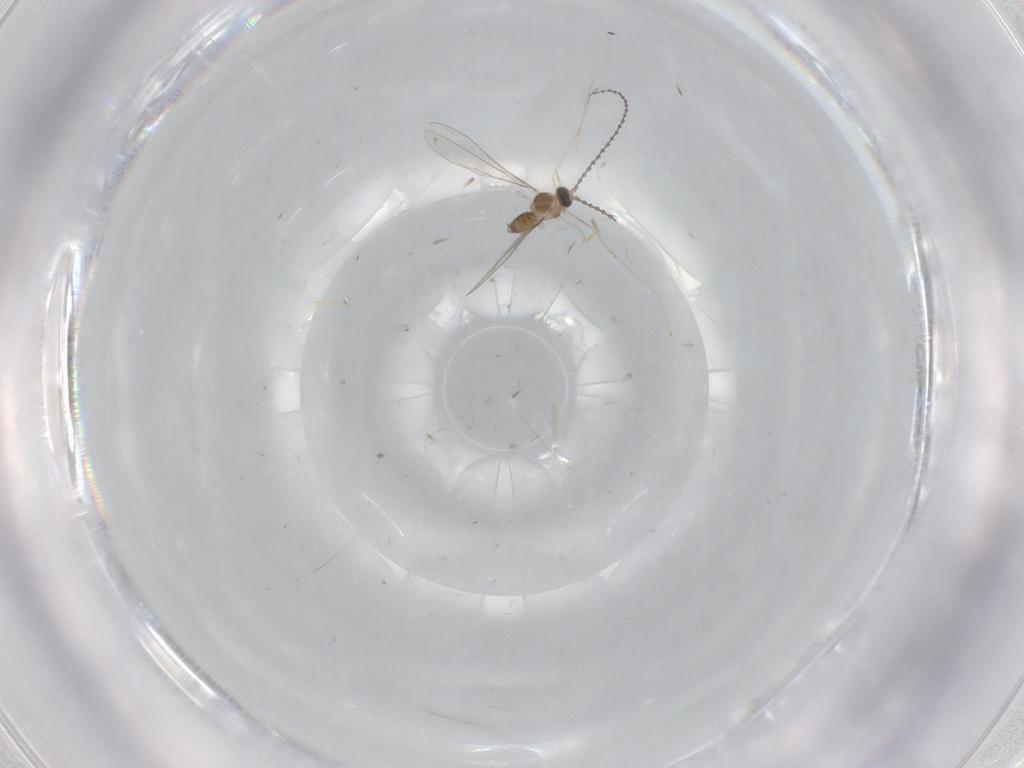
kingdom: Animalia
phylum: Arthropoda
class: Insecta
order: Diptera
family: Cecidomyiidae
